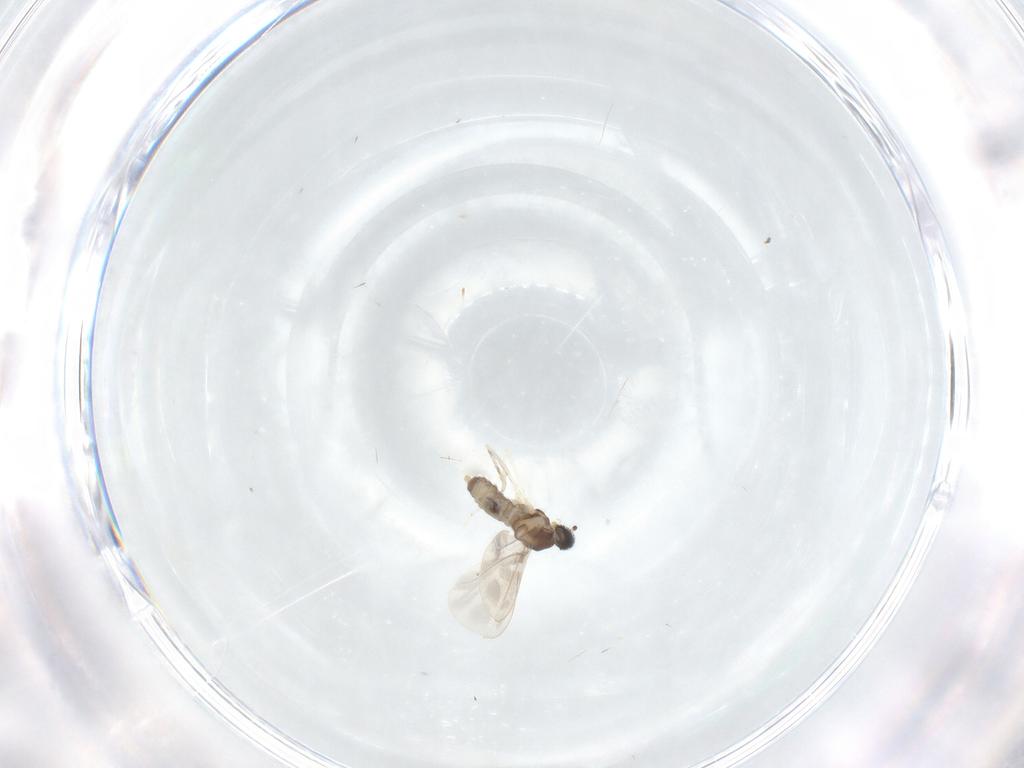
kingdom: Animalia
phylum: Arthropoda
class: Insecta
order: Diptera
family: Cecidomyiidae
